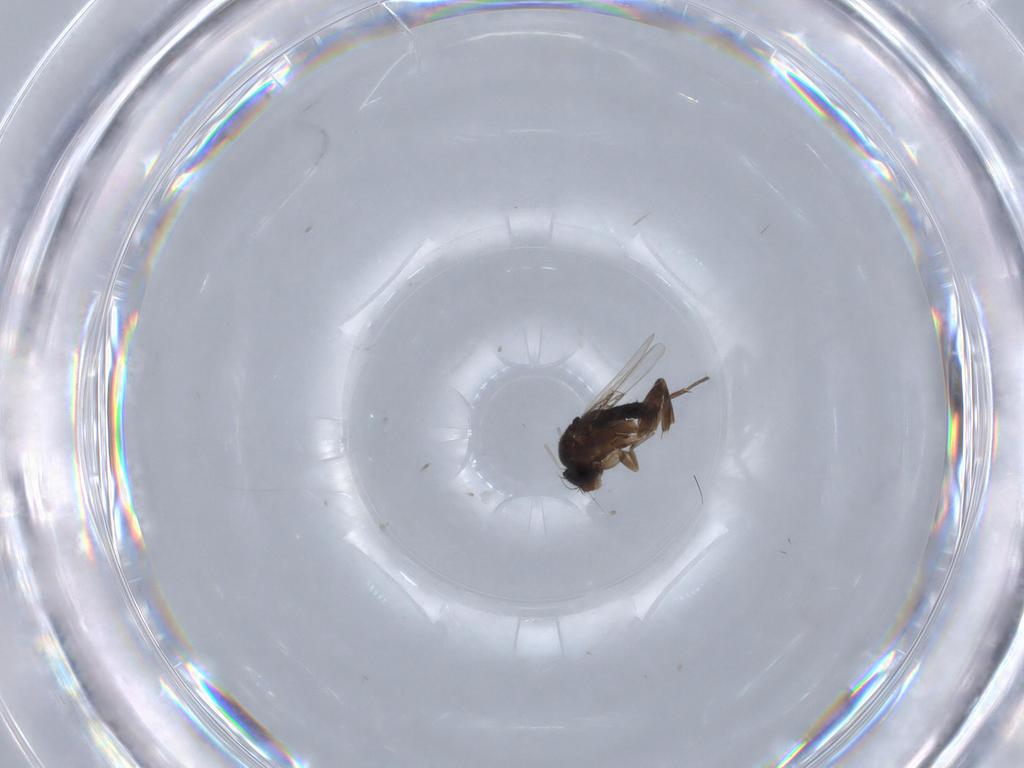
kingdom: Animalia
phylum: Arthropoda
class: Insecta
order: Diptera
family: Phoridae
